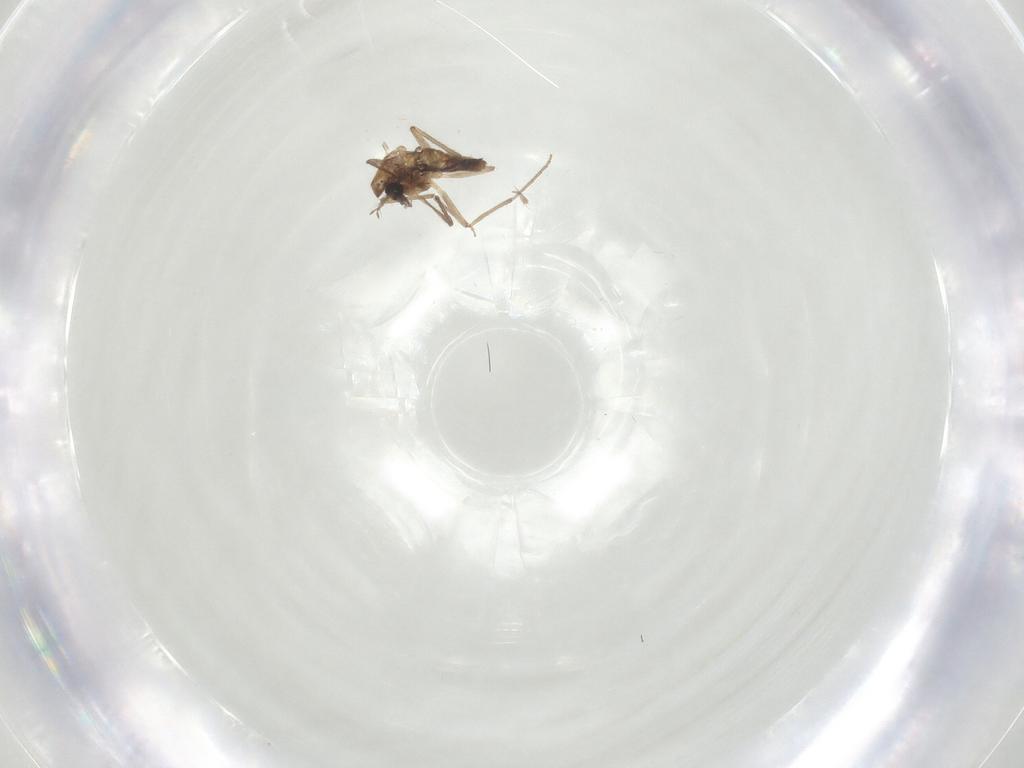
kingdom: Animalia
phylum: Arthropoda
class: Insecta
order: Diptera
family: Chironomidae
